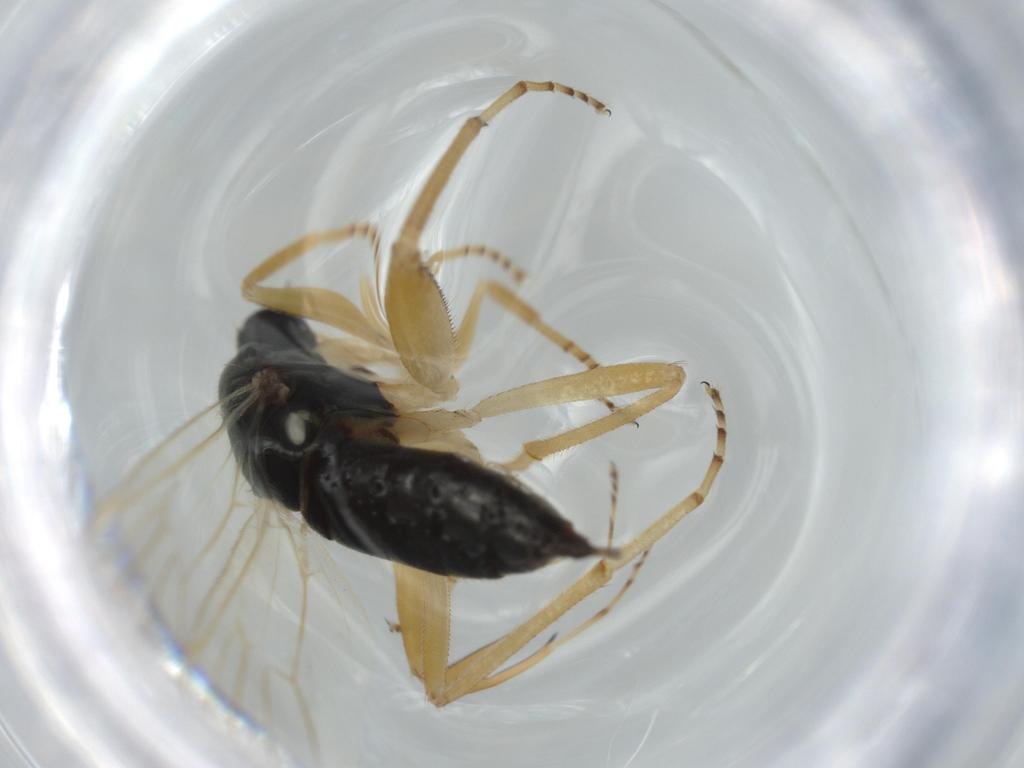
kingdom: Animalia
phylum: Arthropoda
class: Insecta
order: Diptera
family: Hybotidae
